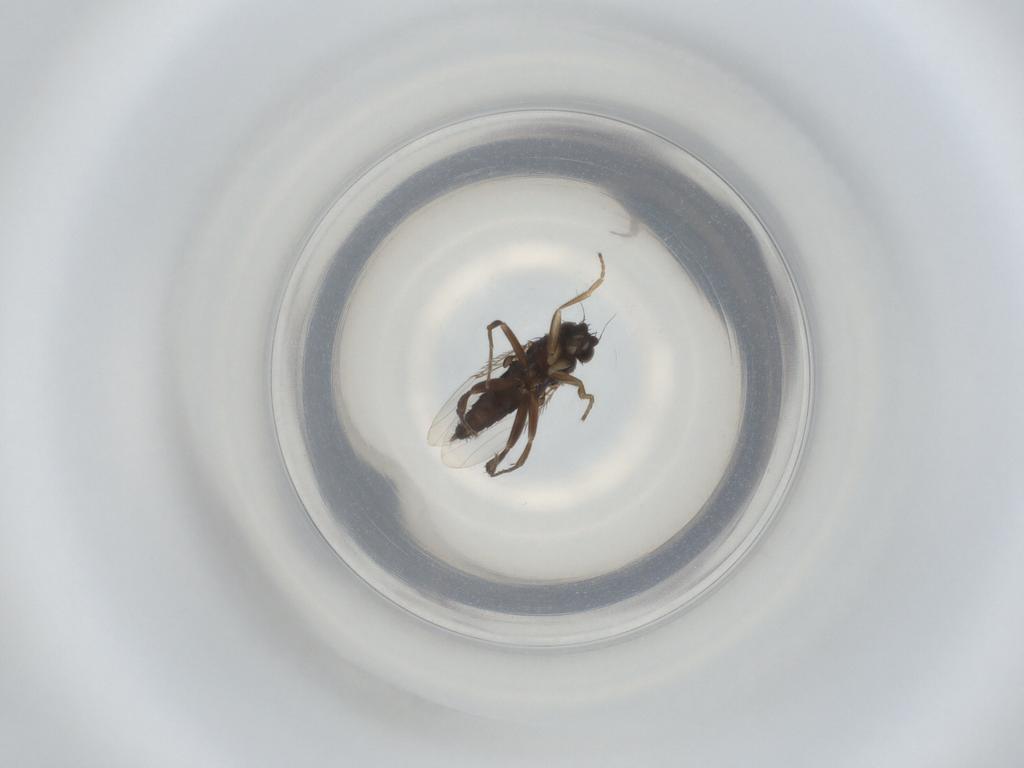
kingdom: Animalia
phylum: Arthropoda
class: Insecta
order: Diptera
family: Phoridae
